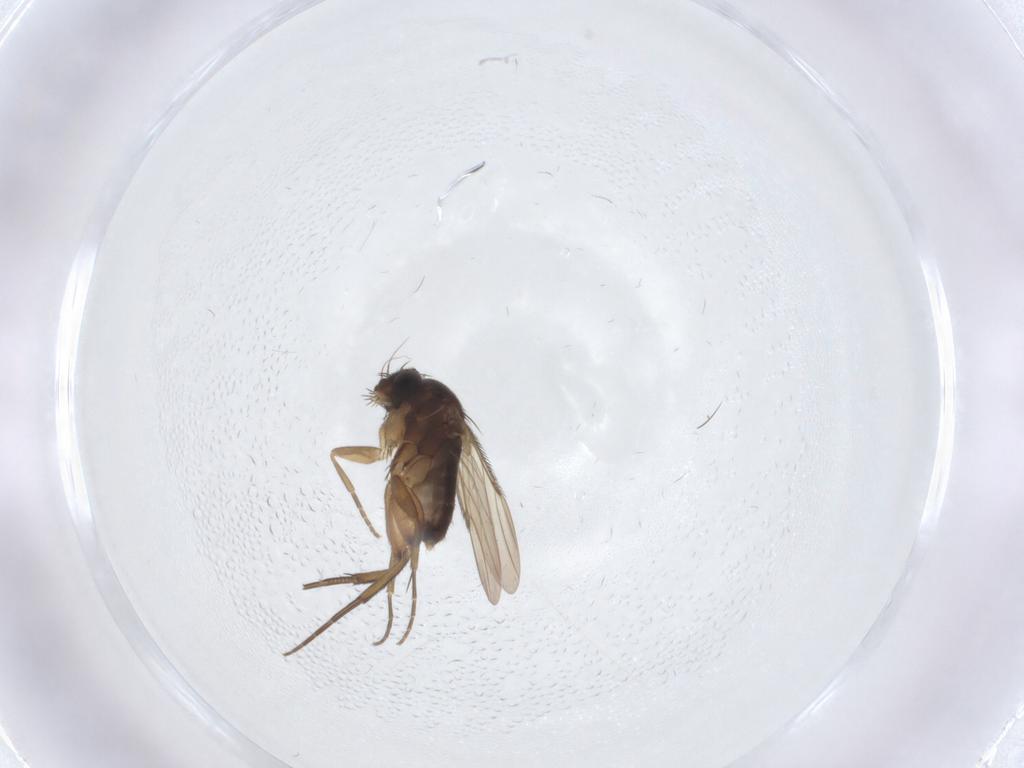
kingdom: Animalia
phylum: Arthropoda
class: Insecta
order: Diptera
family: Phoridae
